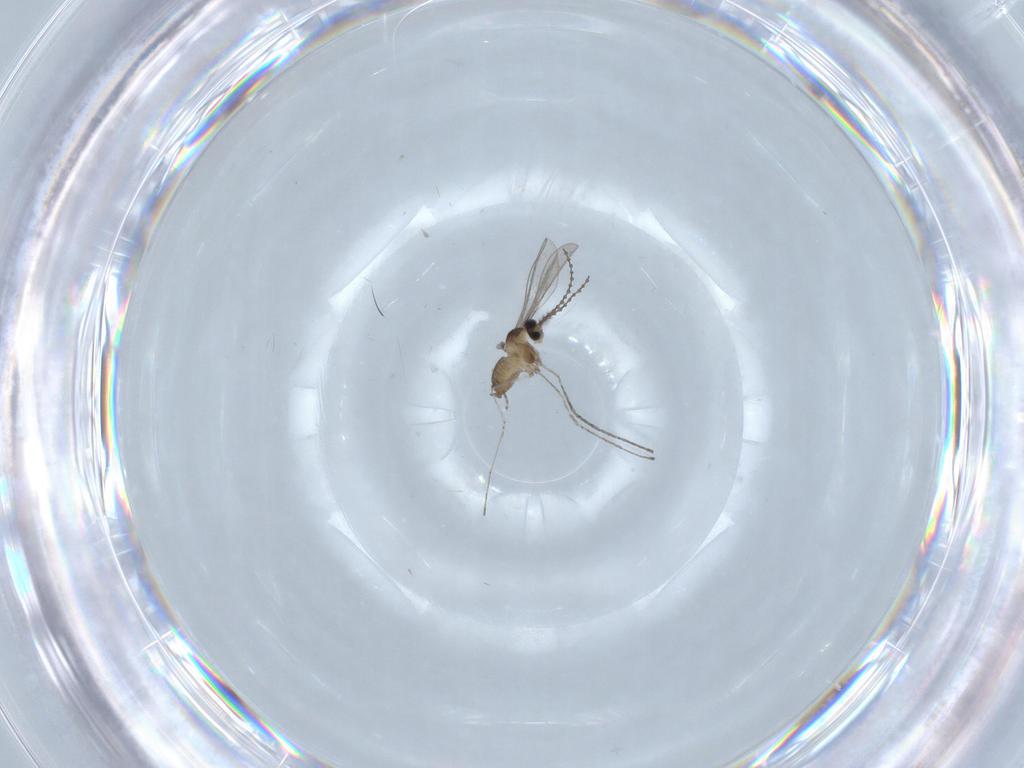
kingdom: Animalia
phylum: Arthropoda
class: Insecta
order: Diptera
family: Cecidomyiidae
